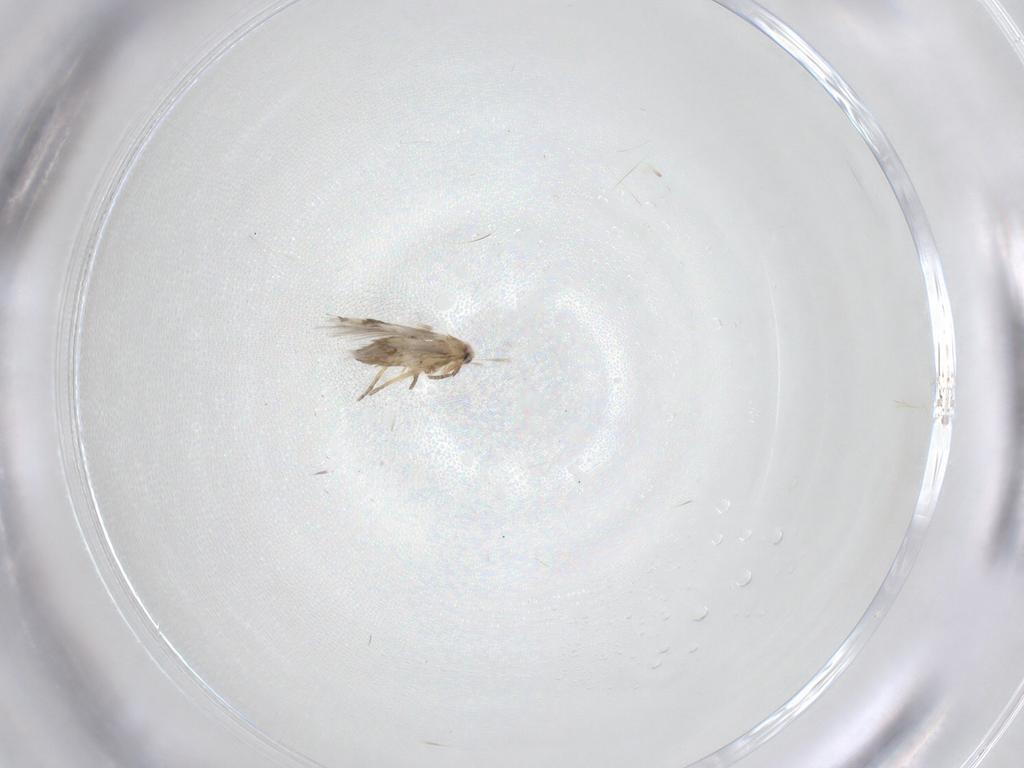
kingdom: Animalia
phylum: Arthropoda
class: Insecta
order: Lepidoptera
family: Nepticulidae
